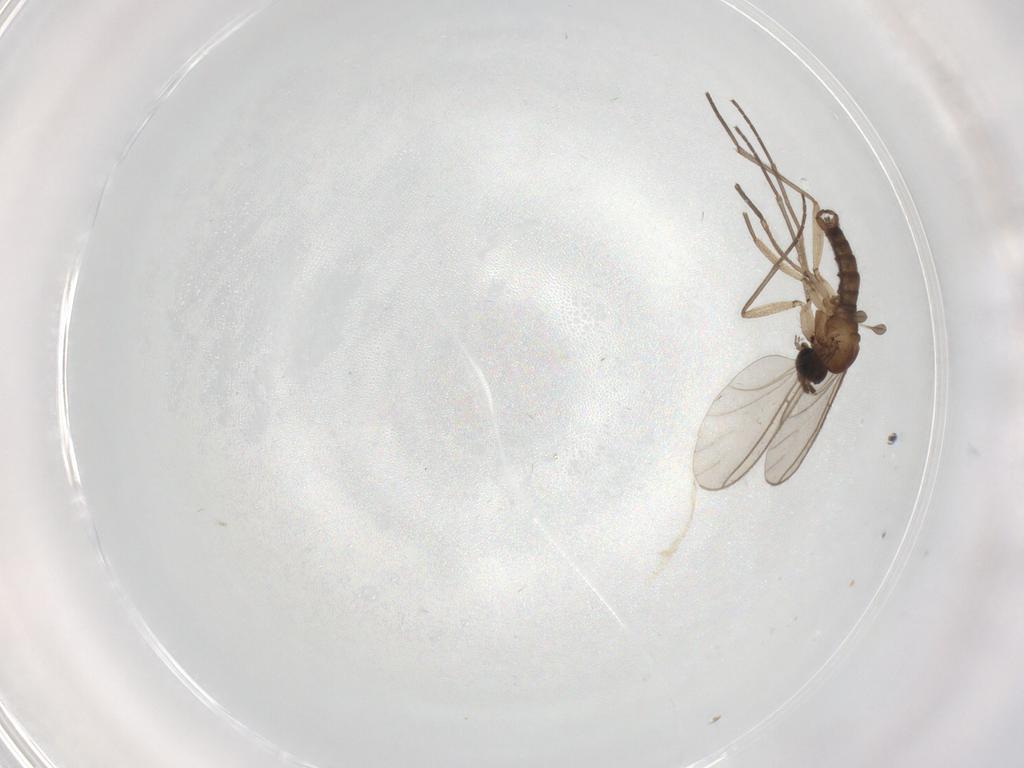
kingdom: Animalia
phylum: Arthropoda
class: Insecta
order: Diptera
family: Sciaridae
